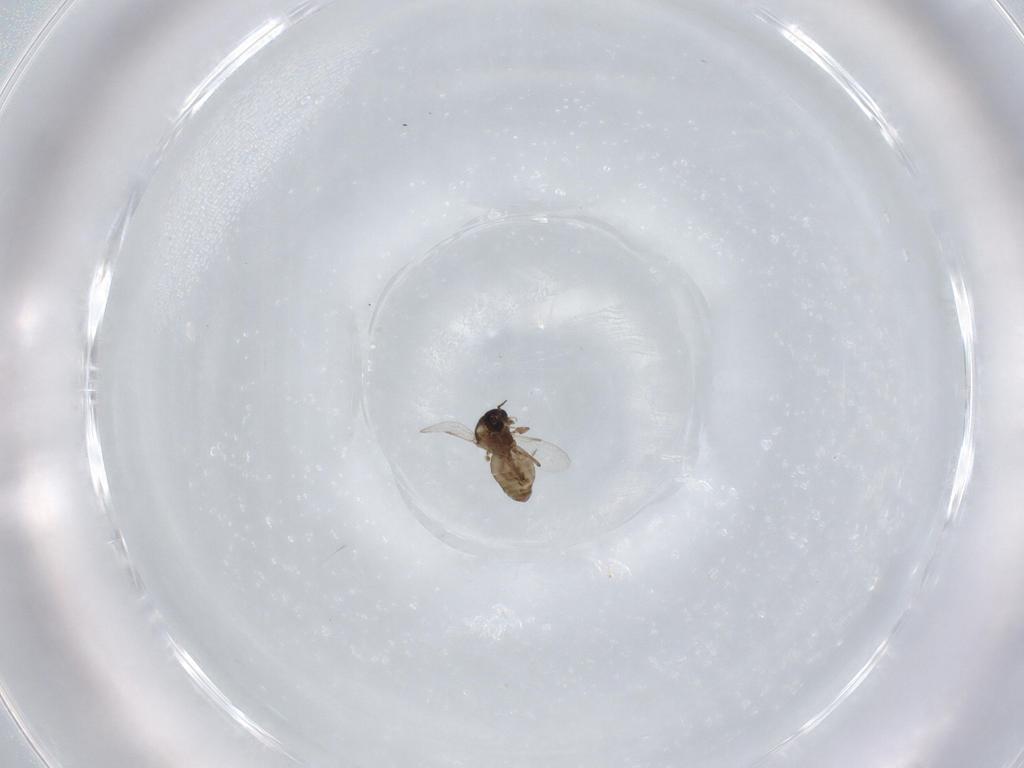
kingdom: Animalia
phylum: Arthropoda
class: Insecta
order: Diptera
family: Ceratopogonidae
